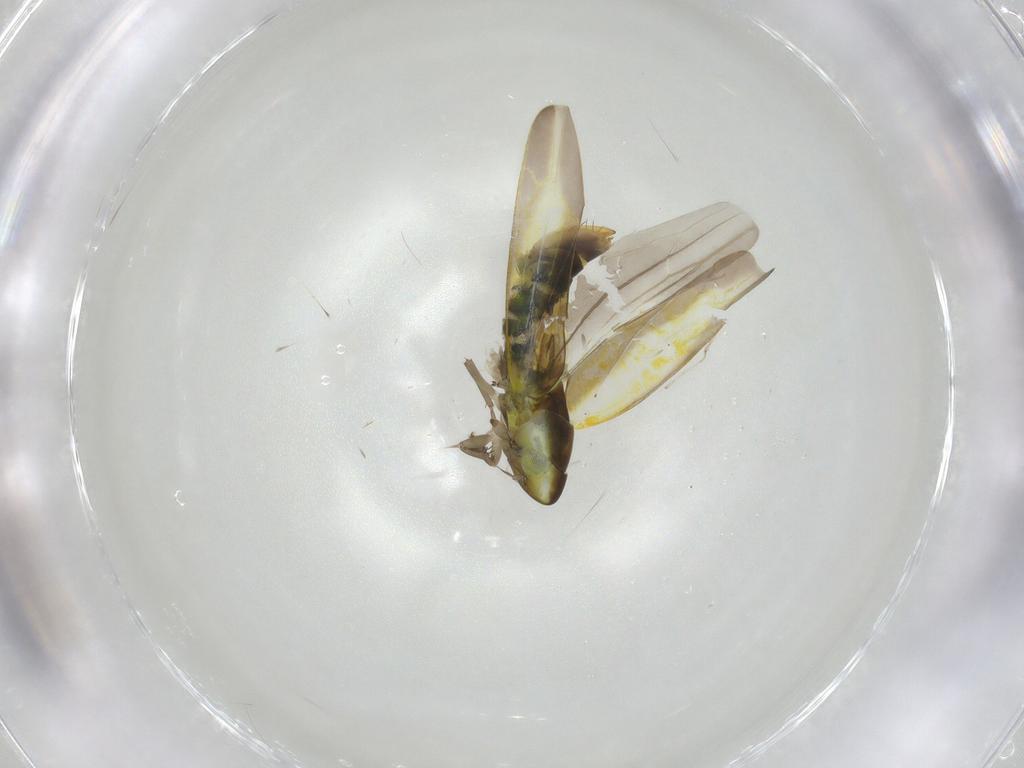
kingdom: Animalia
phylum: Arthropoda
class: Insecta
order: Hemiptera
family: Cicadellidae
